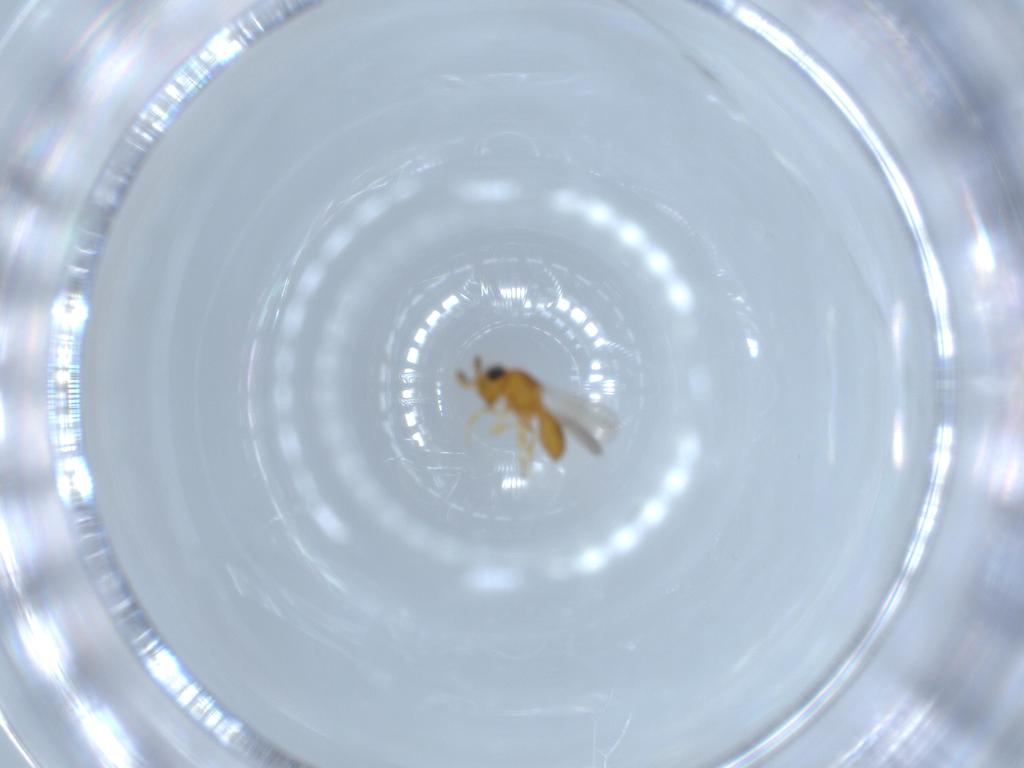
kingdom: Animalia
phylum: Arthropoda
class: Insecta
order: Hymenoptera
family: Scelionidae
